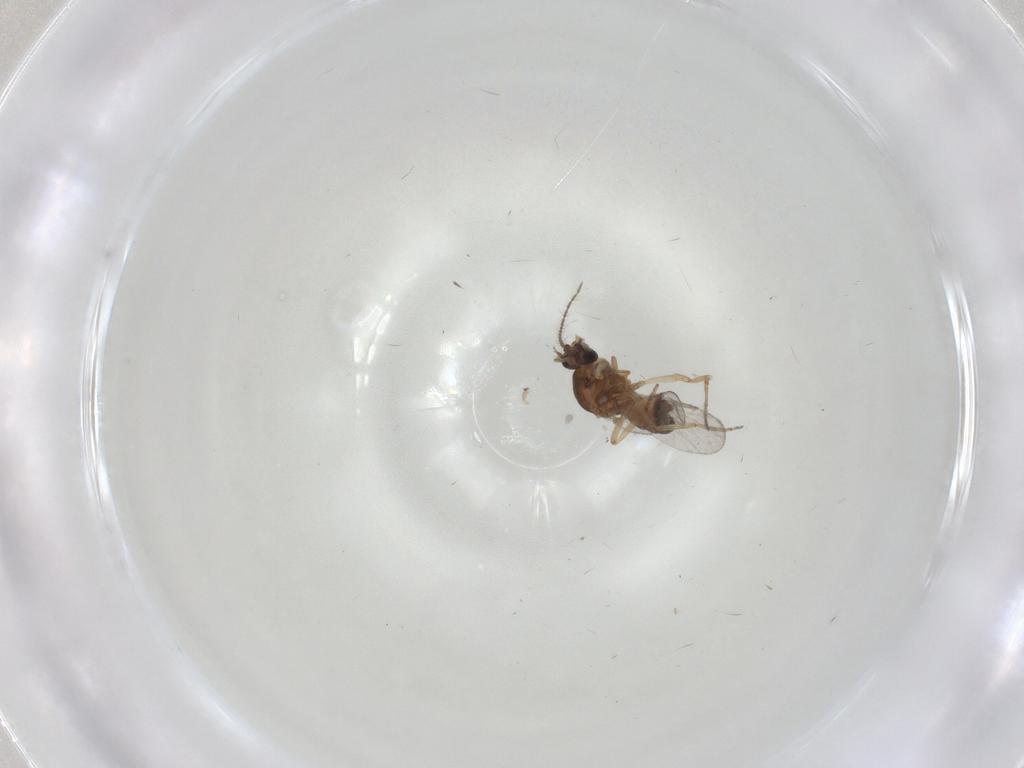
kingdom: Animalia
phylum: Arthropoda
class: Insecta
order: Diptera
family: Ceratopogonidae
